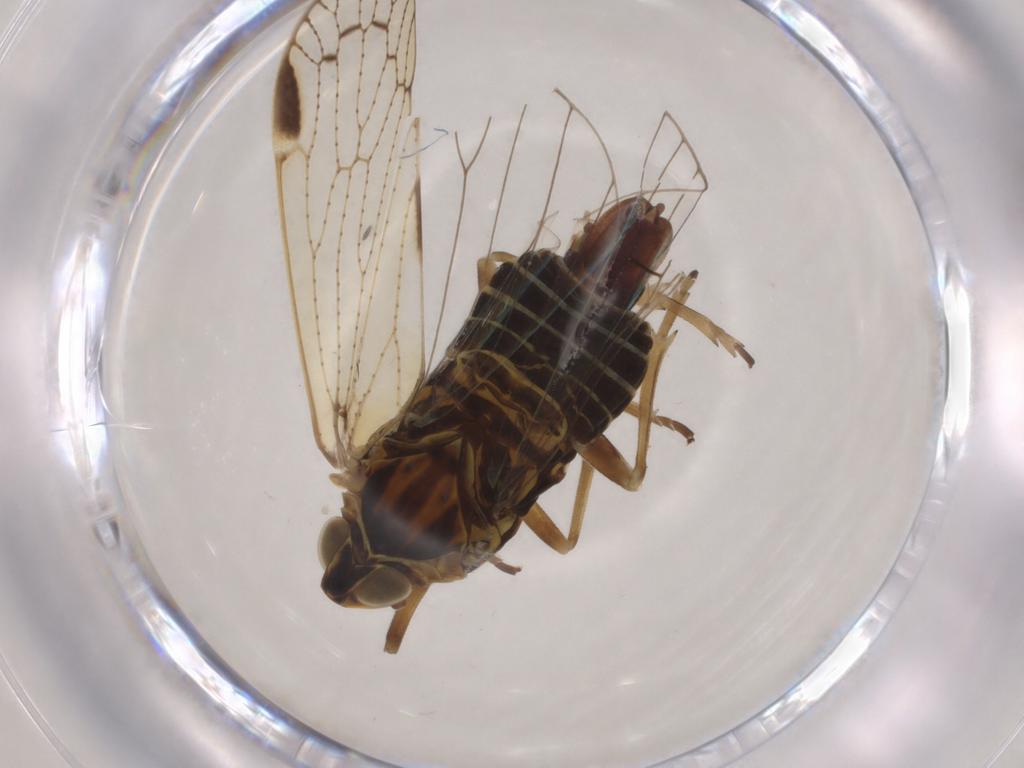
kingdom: Animalia
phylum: Arthropoda
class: Insecta
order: Hemiptera
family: Cixiidae
